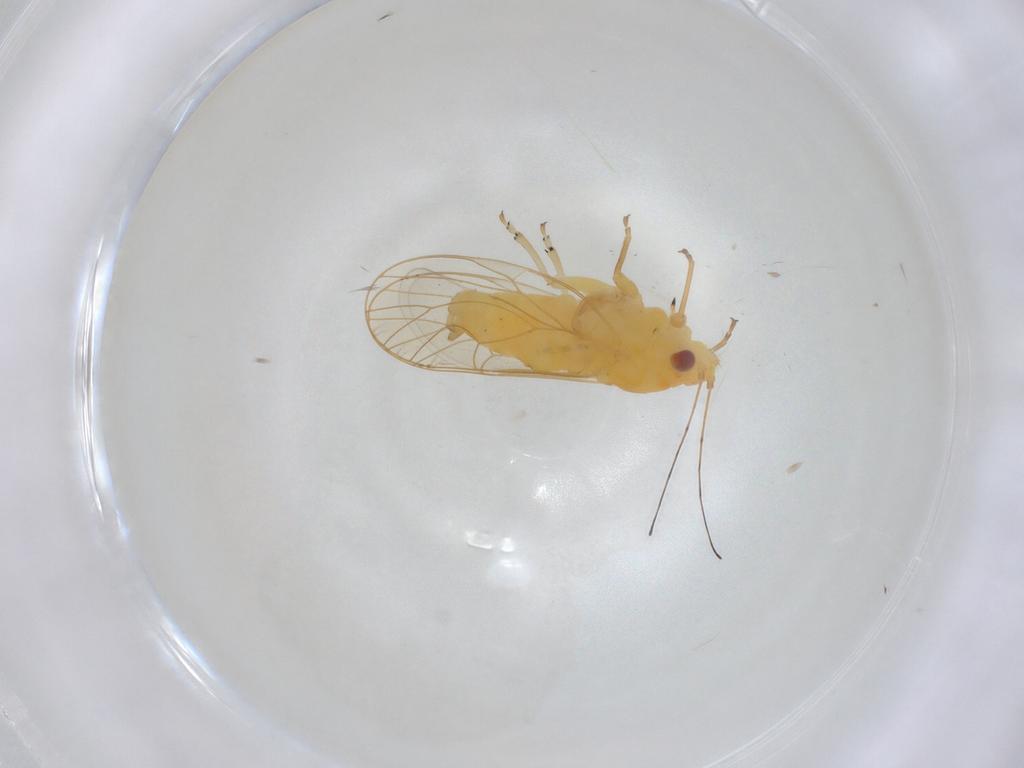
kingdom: Animalia
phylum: Arthropoda
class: Insecta
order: Hemiptera
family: Psyllidae
